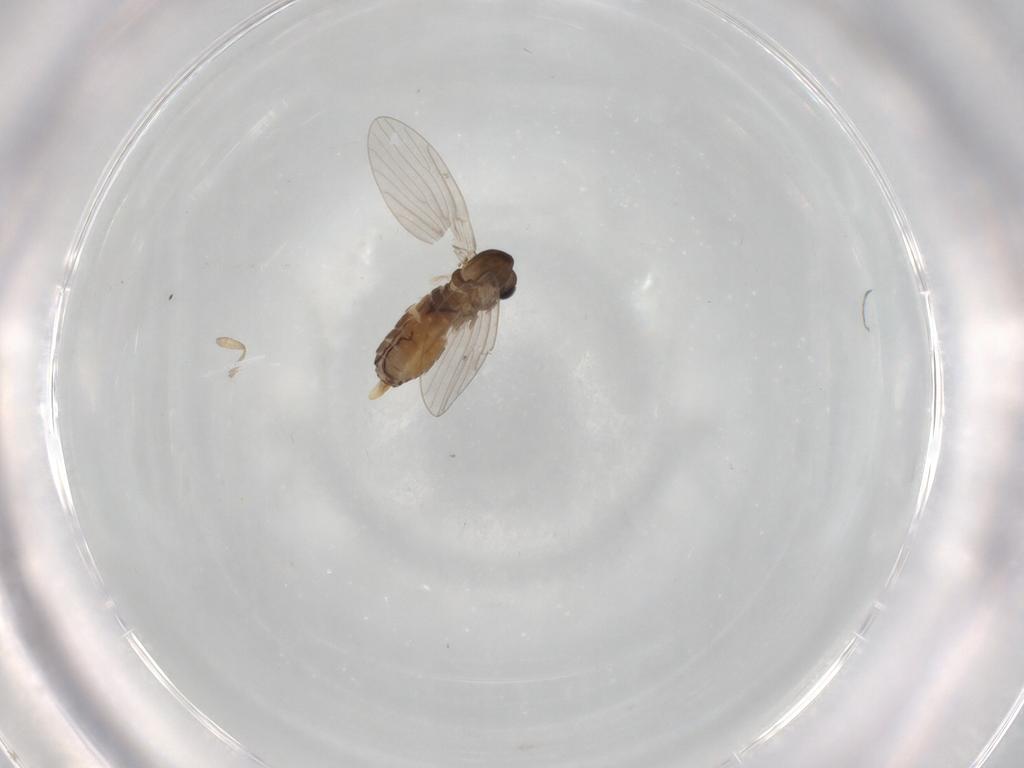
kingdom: Animalia
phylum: Arthropoda
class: Insecta
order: Diptera
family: Psychodidae
